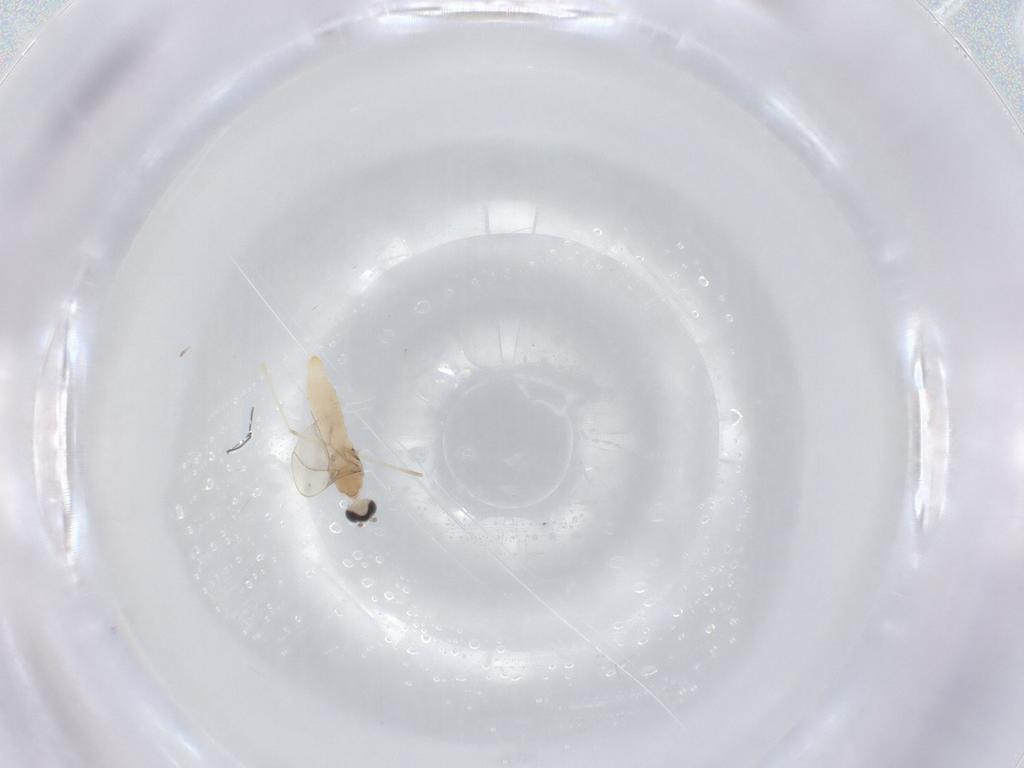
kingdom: Animalia
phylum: Arthropoda
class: Insecta
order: Diptera
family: Cecidomyiidae
